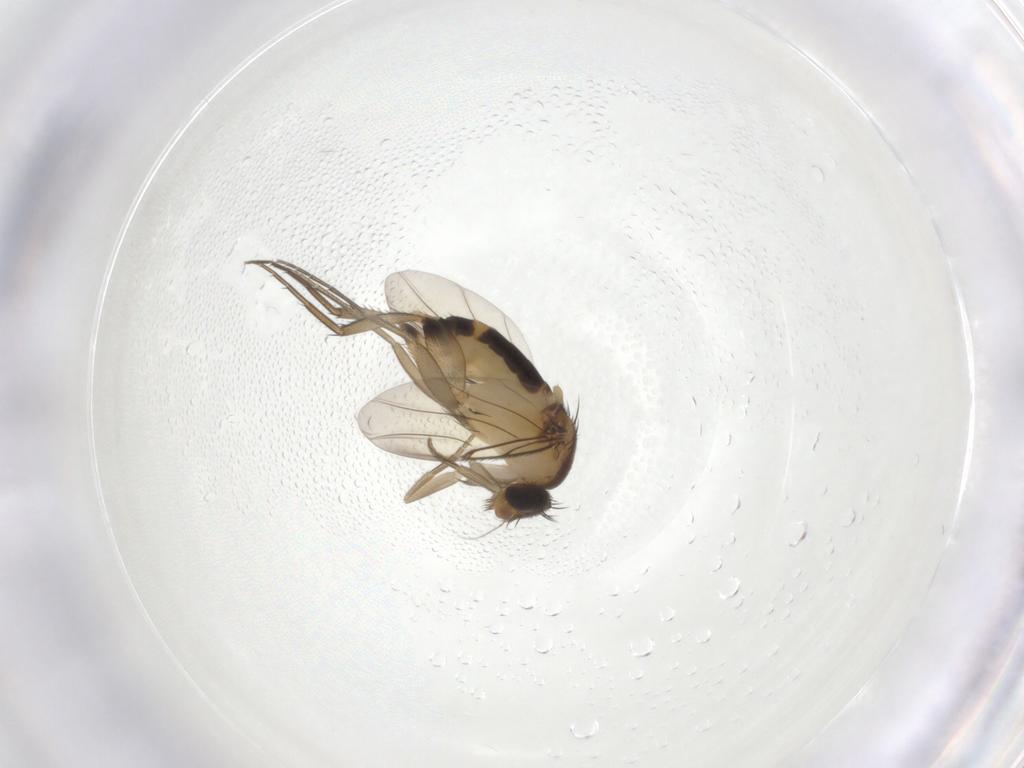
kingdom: Animalia
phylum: Arthropoda
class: Insecta
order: Diptera
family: Phoridae
